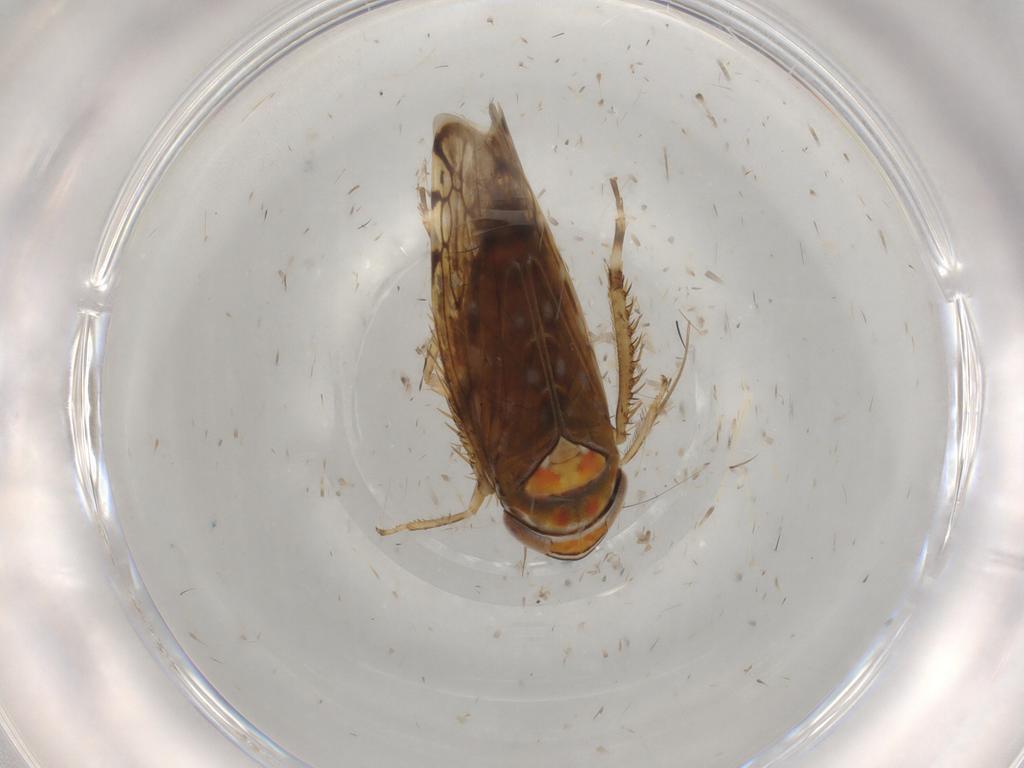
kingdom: Animalia
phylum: Arthropoda
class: Insecta
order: Hemiptera
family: Cicadellidae
